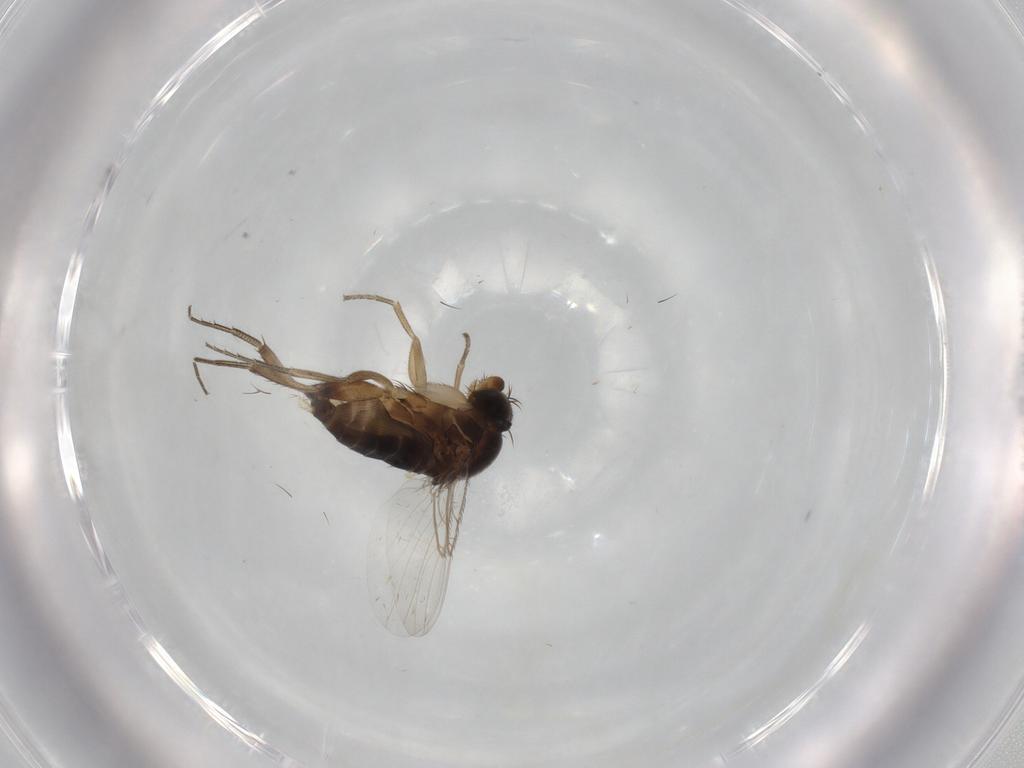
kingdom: Animalia
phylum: Arthropoda
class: Insecta
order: Diptera
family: Phoridae
